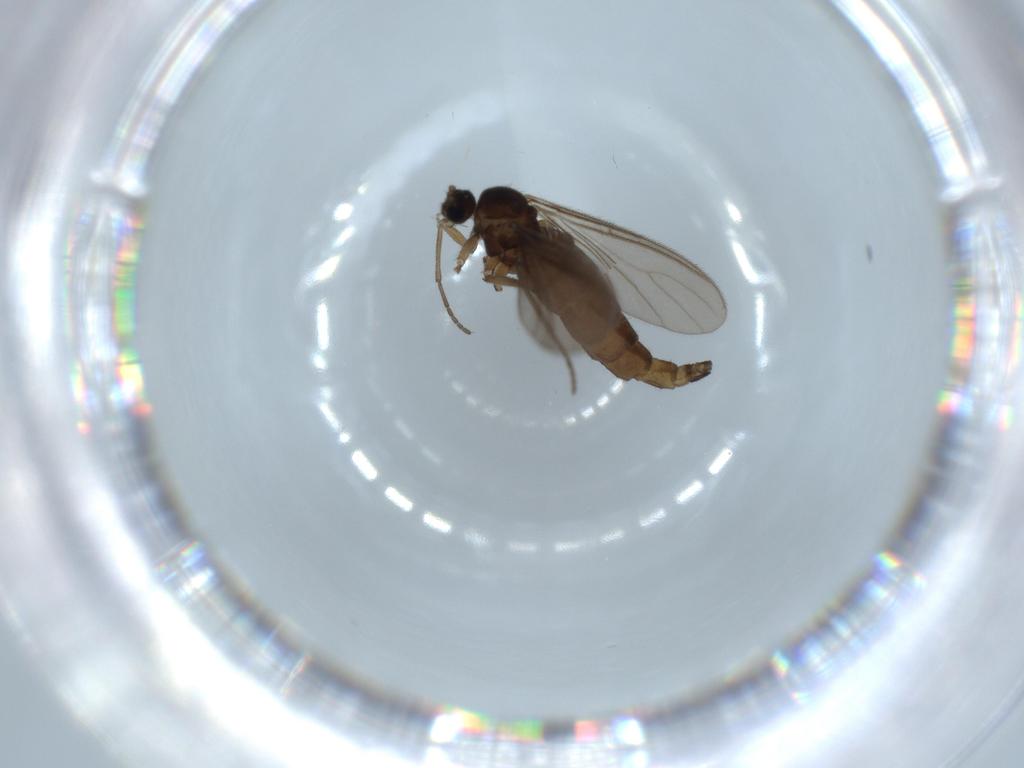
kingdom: Animalia
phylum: Arthropoda
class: Insecta
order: Diptera
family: Sciaridae
